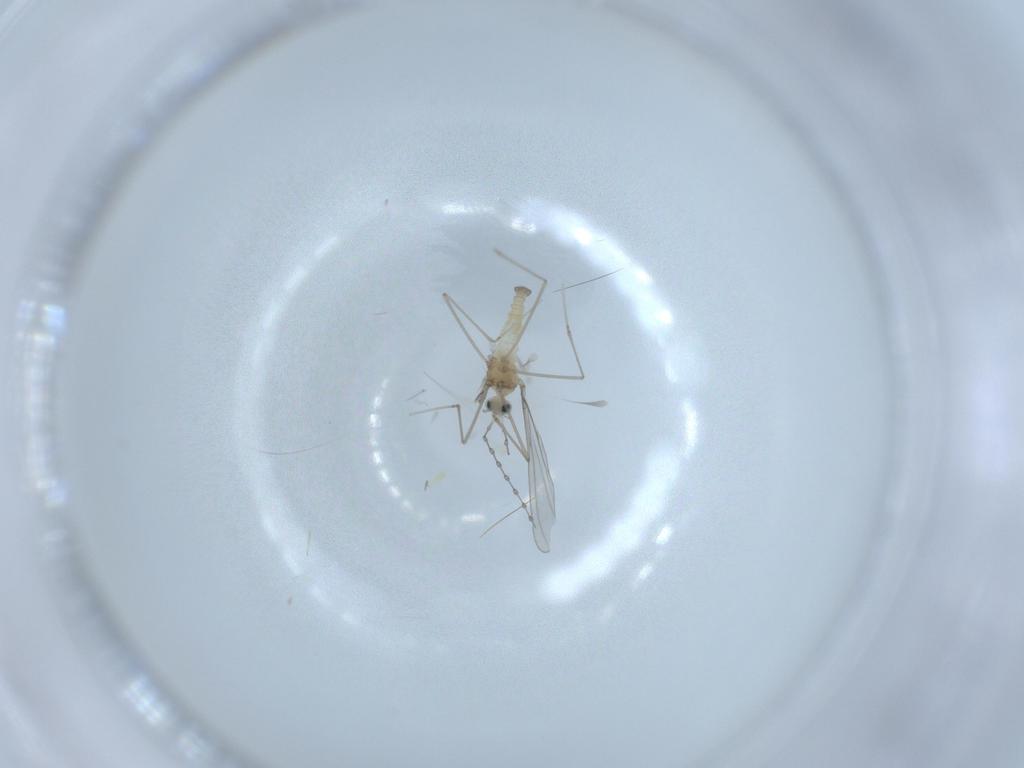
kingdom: Animalia
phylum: Arthropoda
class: Insecta
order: Diptera
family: Cecidomyiidae
